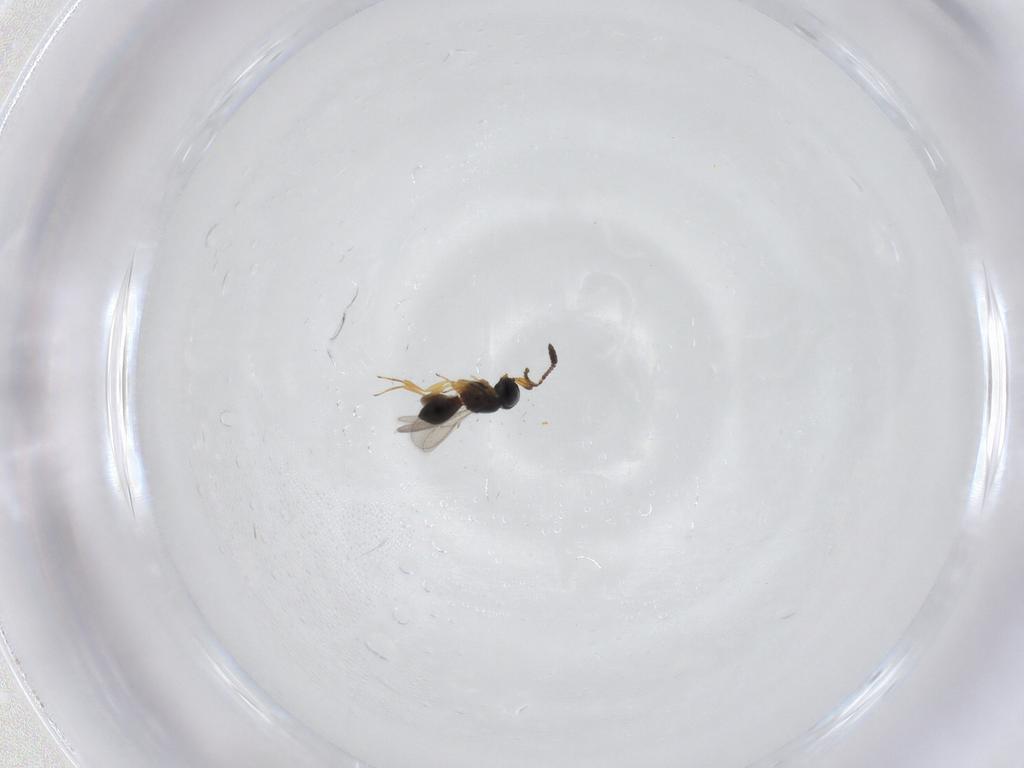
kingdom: Animalia
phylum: Arthropoda
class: Insecta
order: Hymenoptera
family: Scelionidae
